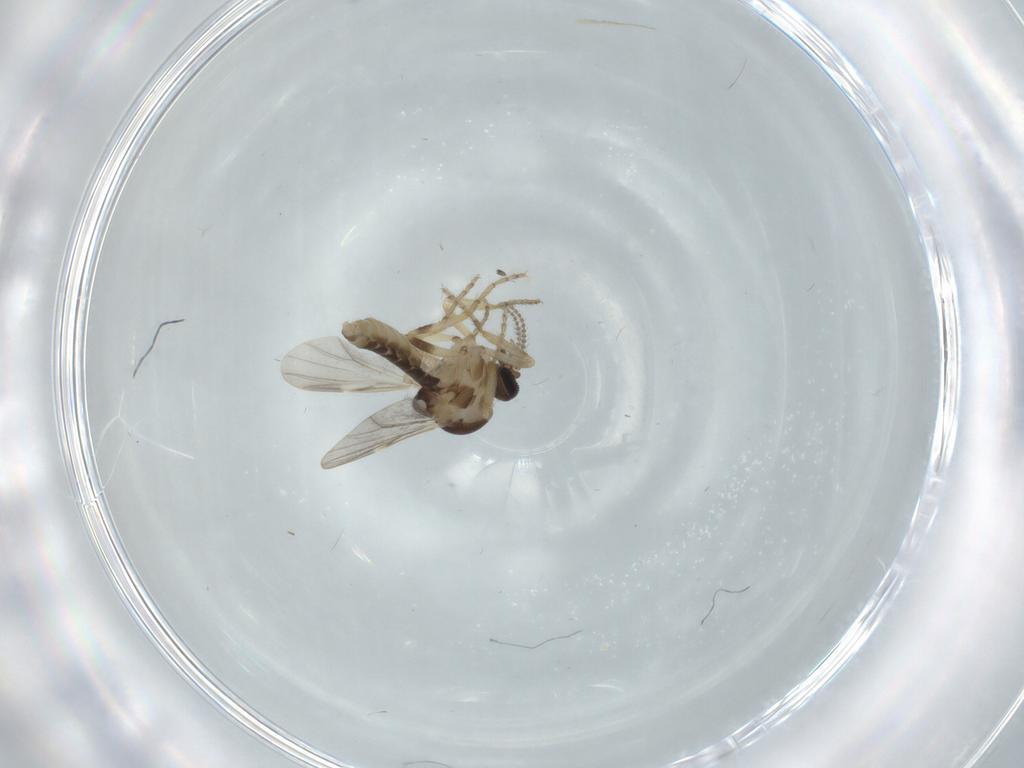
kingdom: Animalia
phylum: Arthropoda
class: Insecta
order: Diptera
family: Ceratopogonidae
